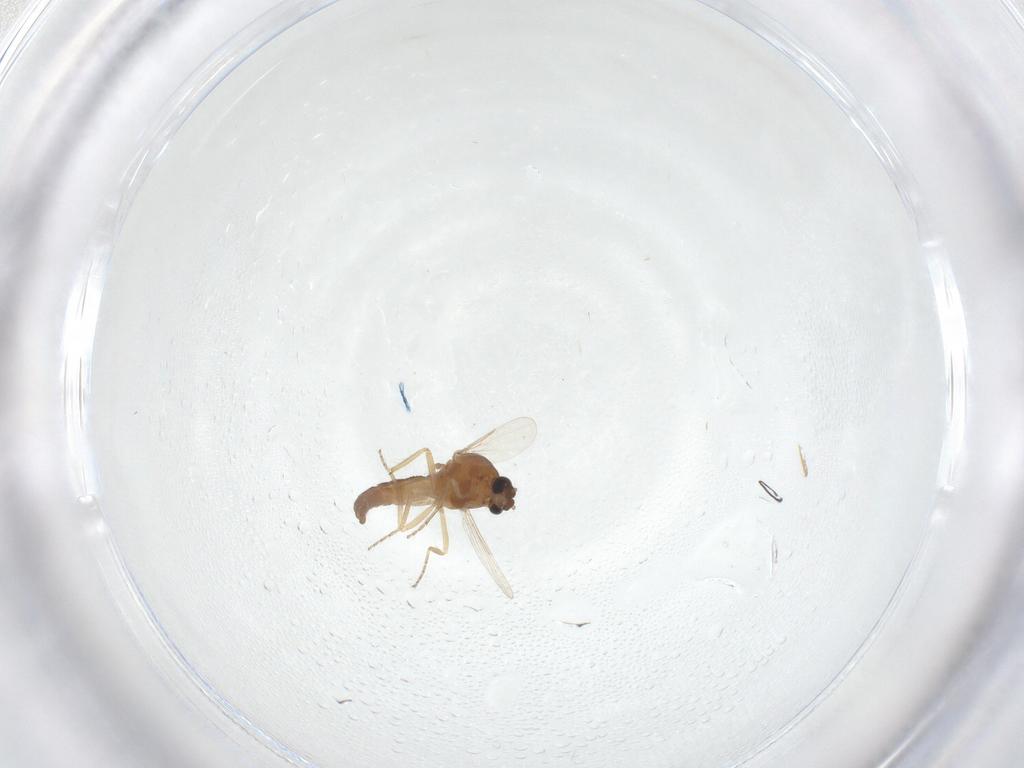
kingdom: Animalia
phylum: Arthropoda
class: Insecta
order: Diptera
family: Ceratopogonidae
